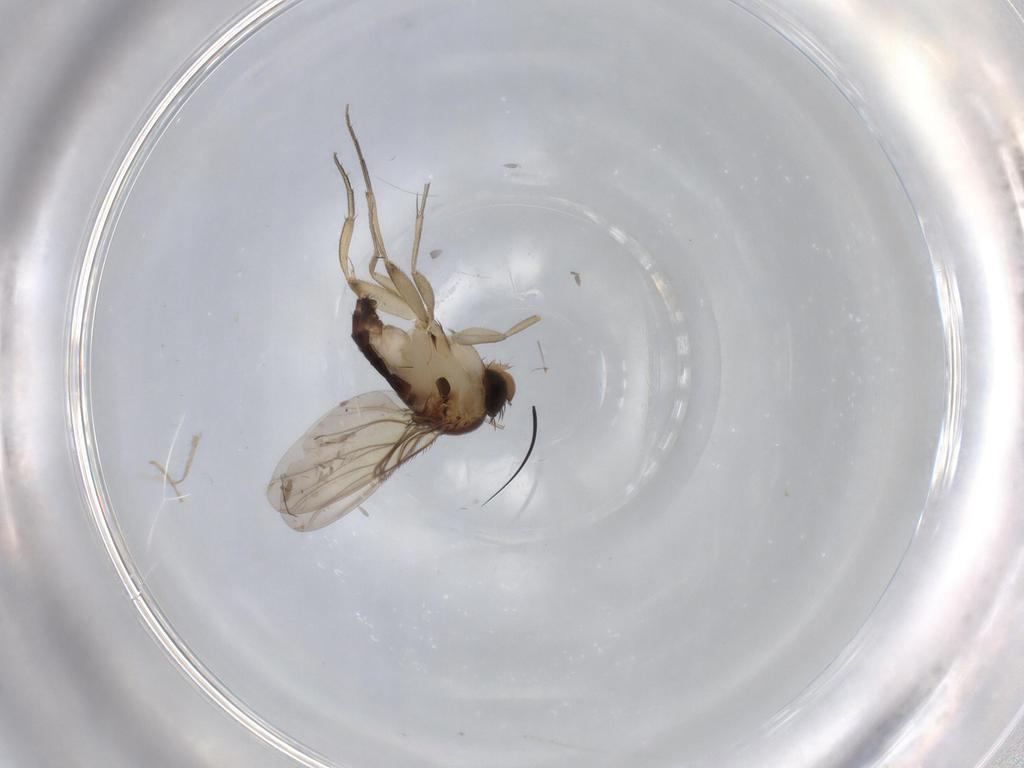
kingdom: Animalia
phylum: Arthropoda
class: Insecta
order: Diptera
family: Phoridae
